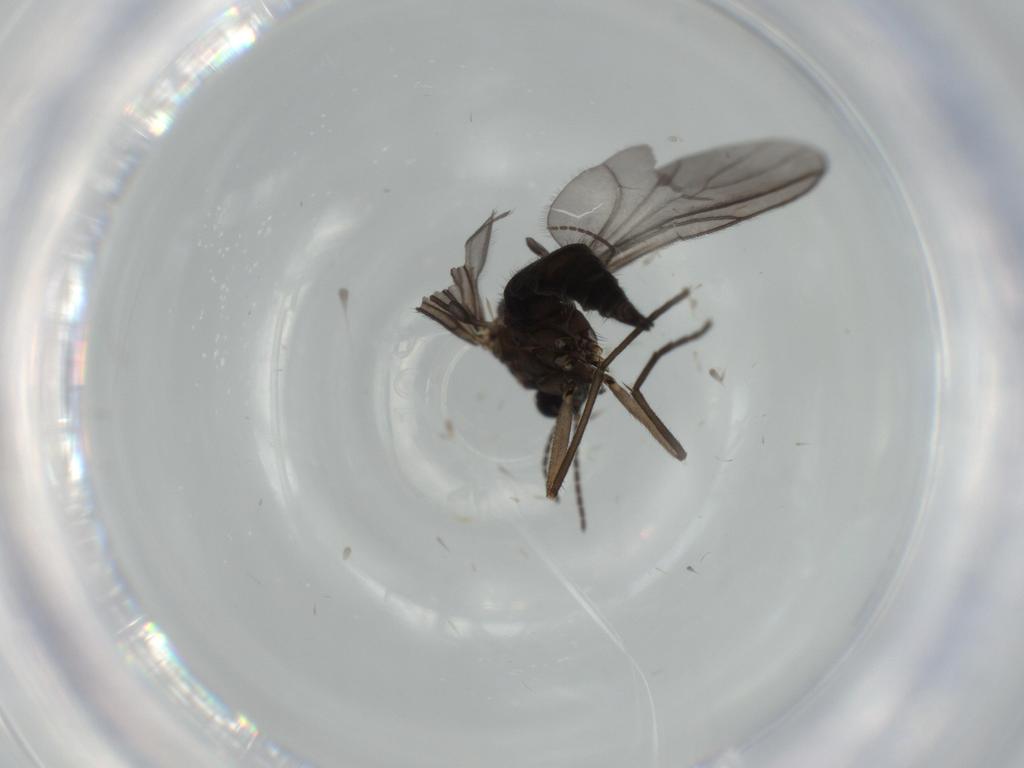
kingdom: Animalia
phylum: Arthropoda
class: Insecta
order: Diptera
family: Sciaridae
